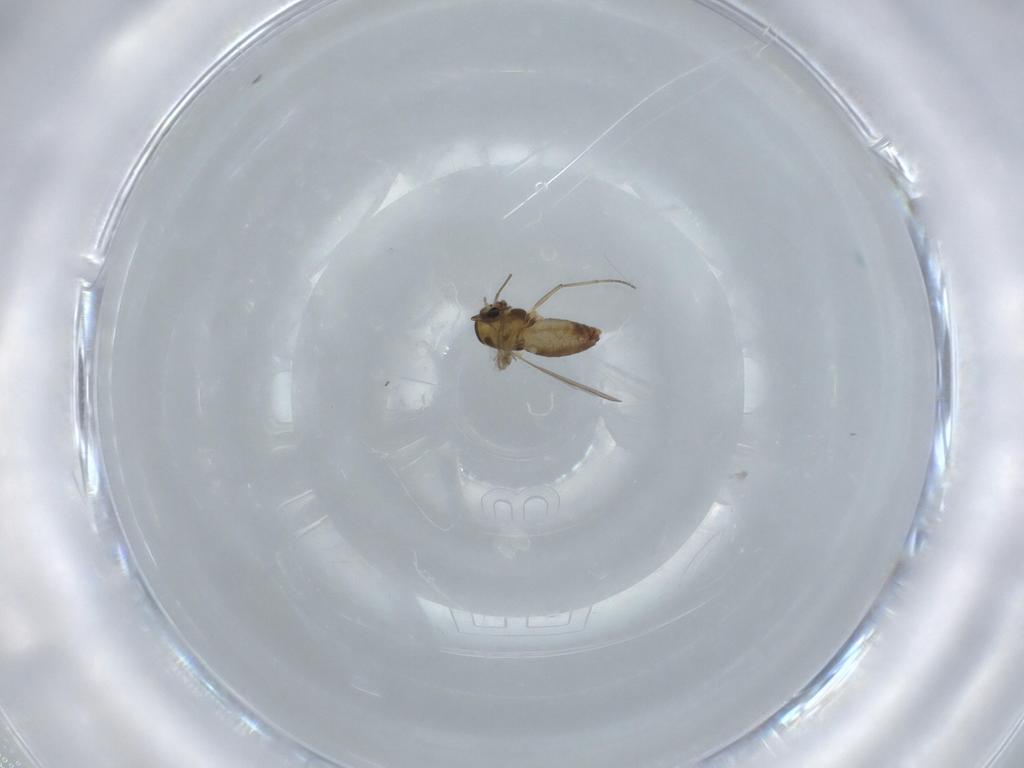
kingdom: Animalia
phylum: Arthropoda
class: Insecta
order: Diptera
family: Chironomidae
